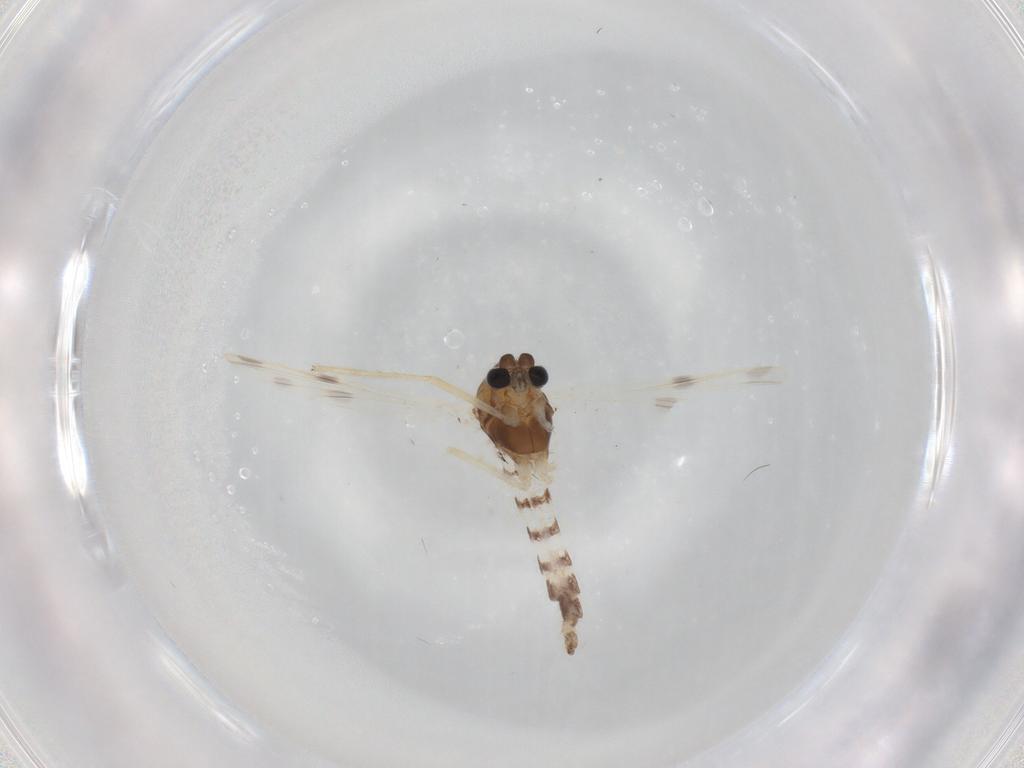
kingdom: Animalia
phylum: Arthropoda
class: Insecta
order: Diptera
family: Chironomidae
